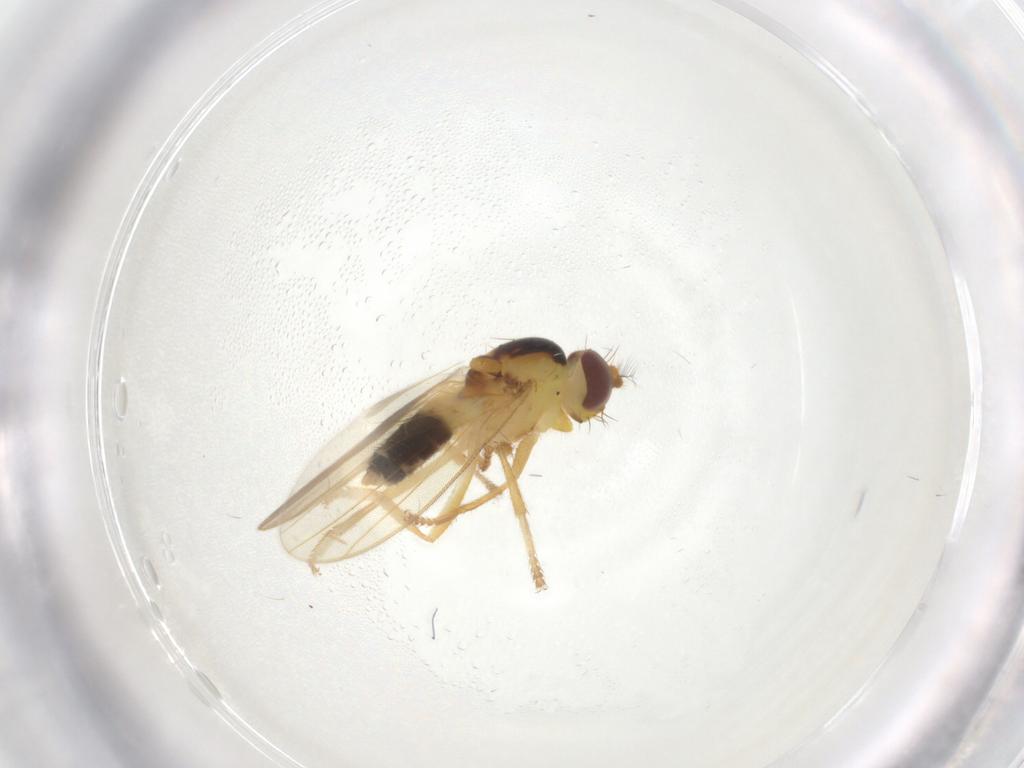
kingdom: Animalia
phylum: Arthropoda
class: Insecta
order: Diptera
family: Periscelididae
